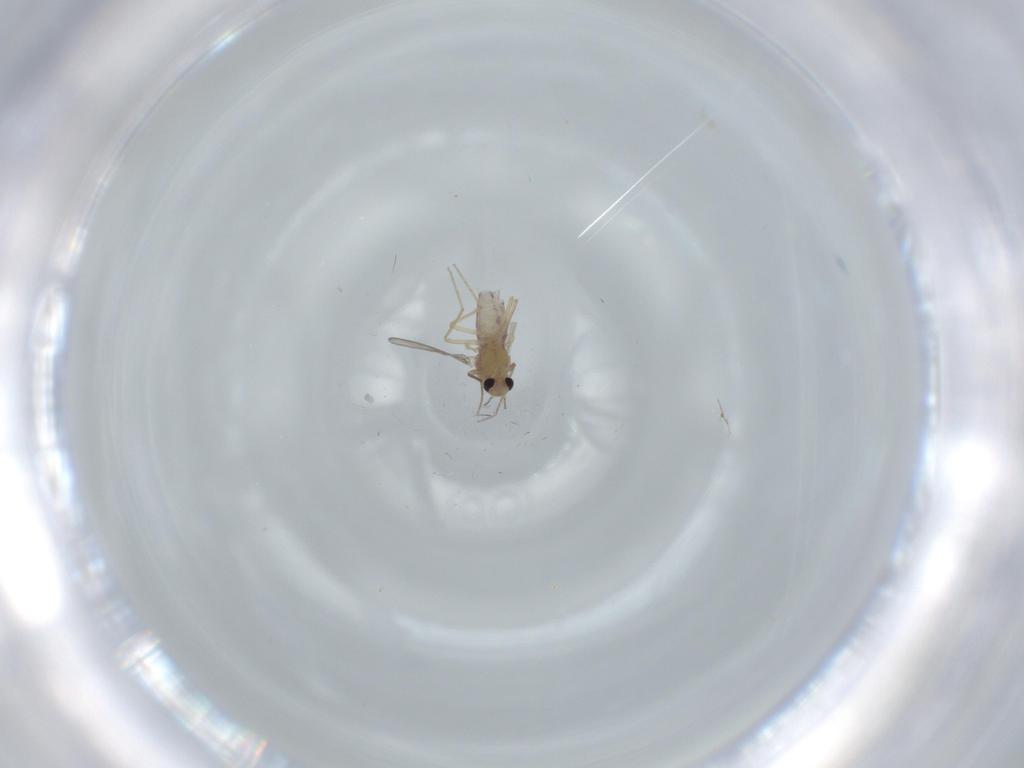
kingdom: Animalia
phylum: Arthropoda
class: Insecta
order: Diptera
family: Chironomidae
